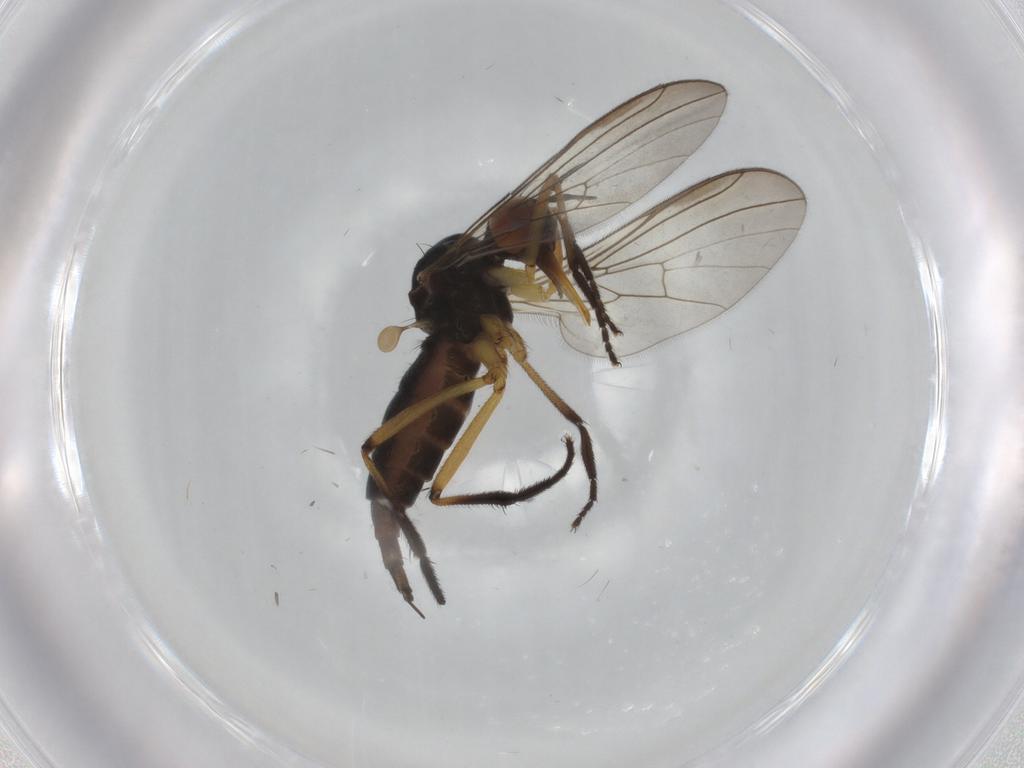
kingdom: Animalia
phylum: Arthropoda
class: Insecta
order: Diptera
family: Empididae
